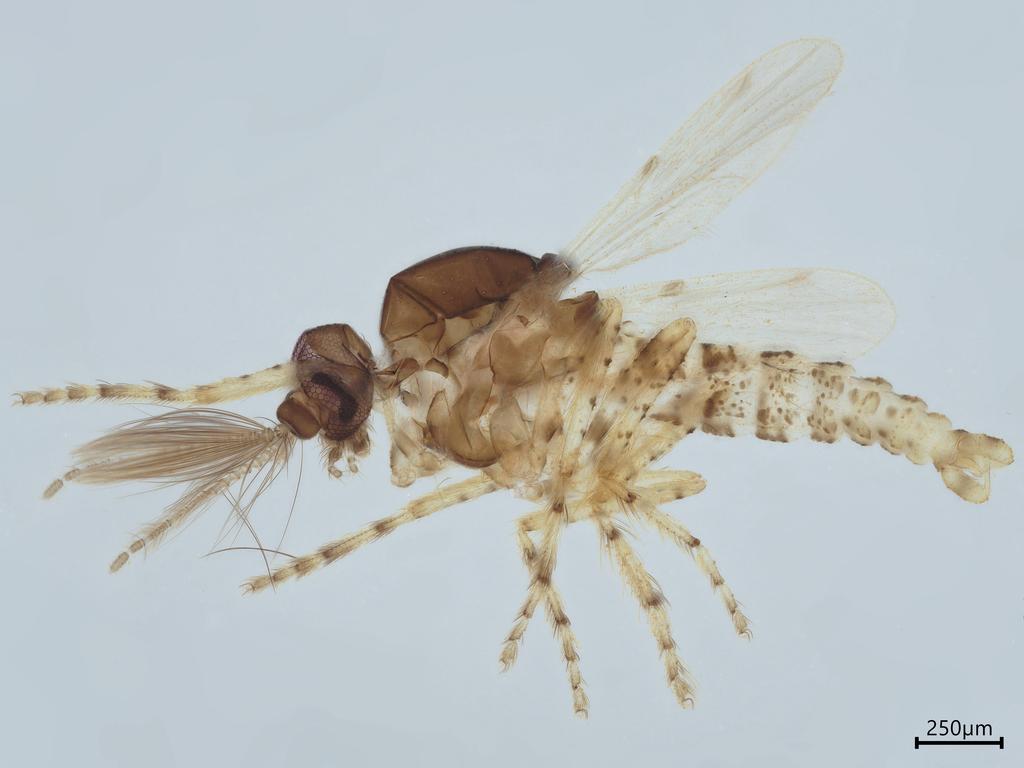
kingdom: Animalia
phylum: Arthropoda
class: Insecta
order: Diptera
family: Ceratopogonidae
